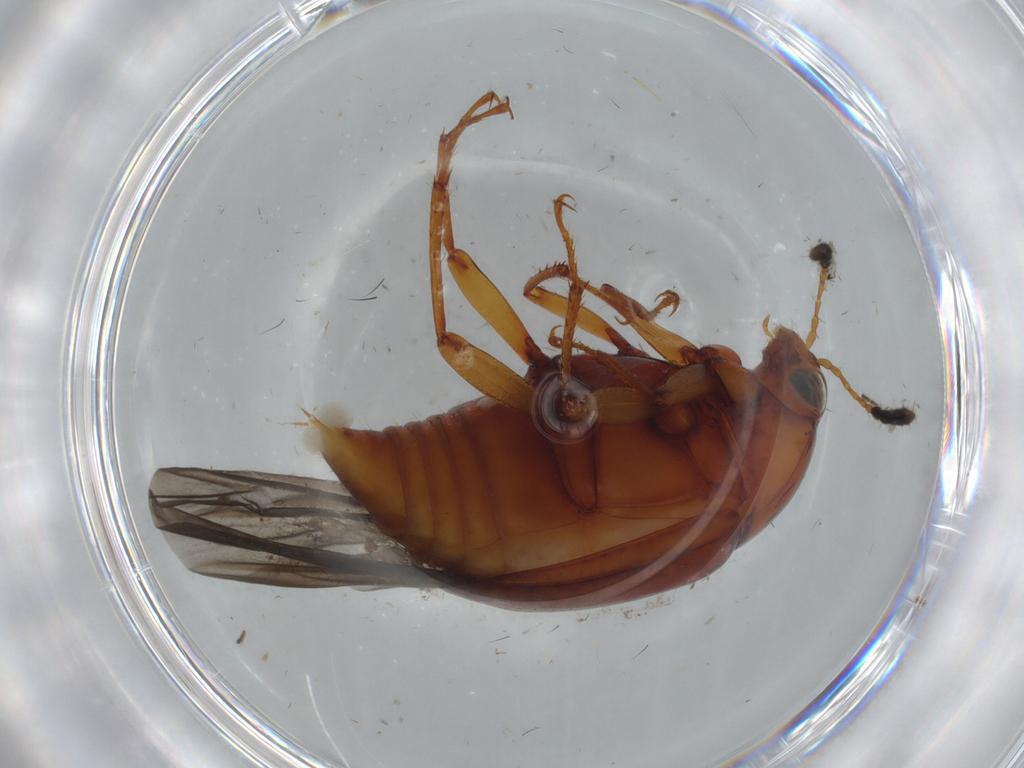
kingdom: Animalia
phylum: Arthropoda
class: Insecta
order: Coleoptera
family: Staphylinidae
